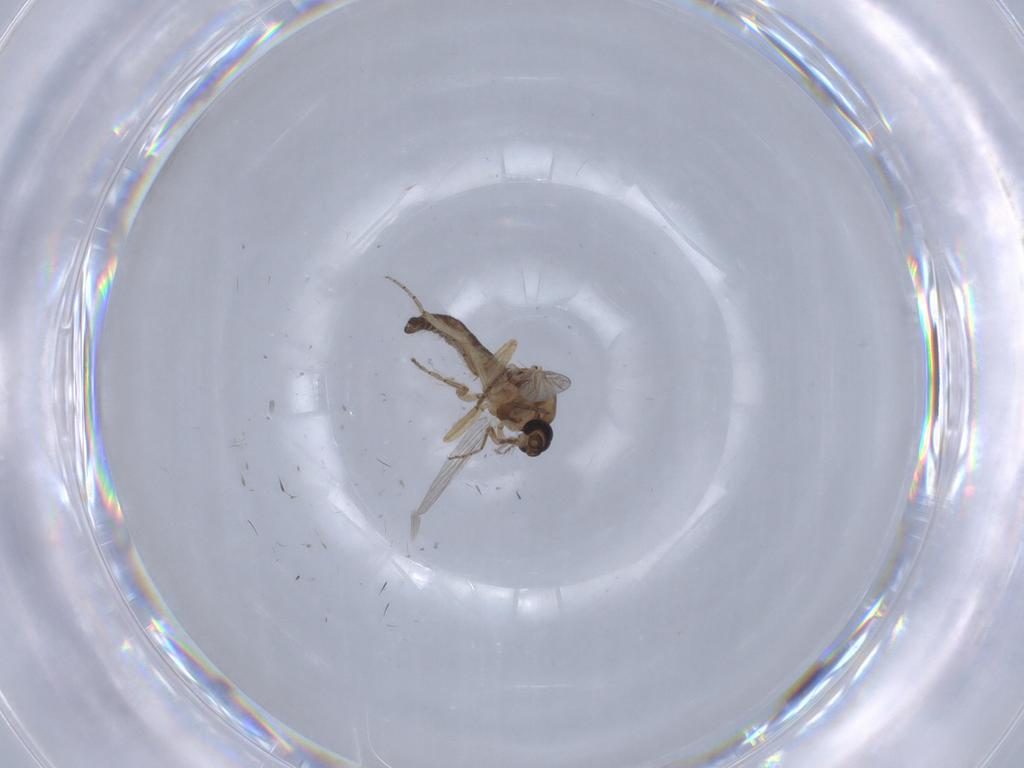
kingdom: Animalia
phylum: Arthropoda
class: Insecta
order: Diptera
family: Ceratopogonidae
